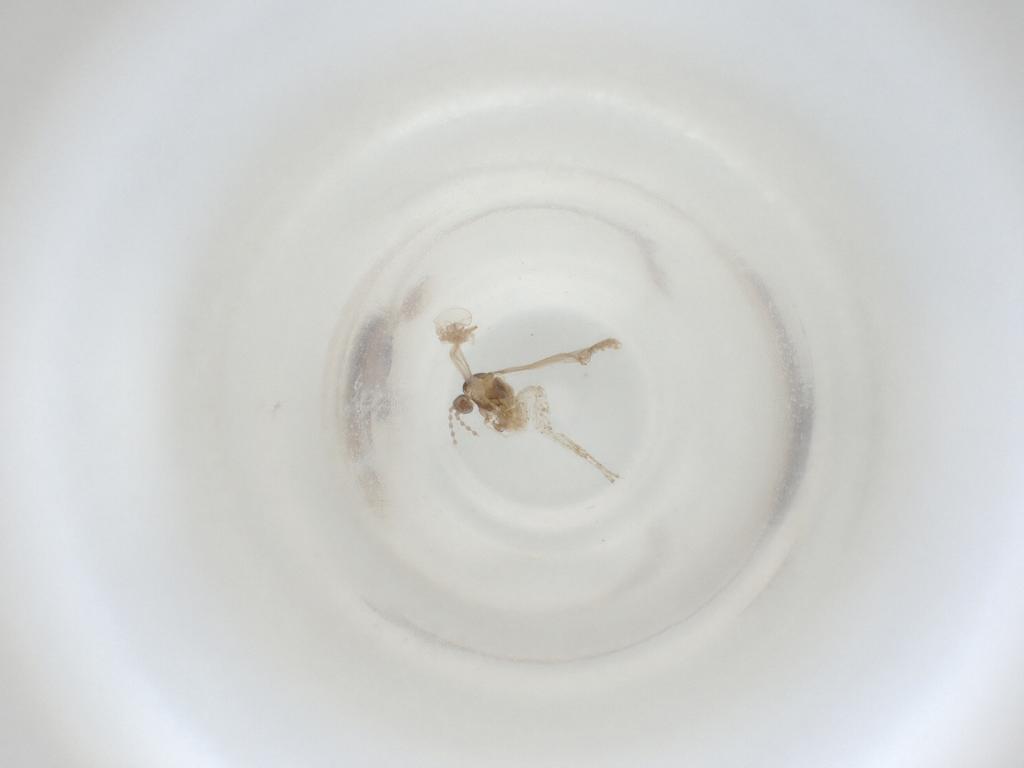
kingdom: Animalia
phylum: Arthropoda
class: Insecta
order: Diptera
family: Cecidomyiidae
